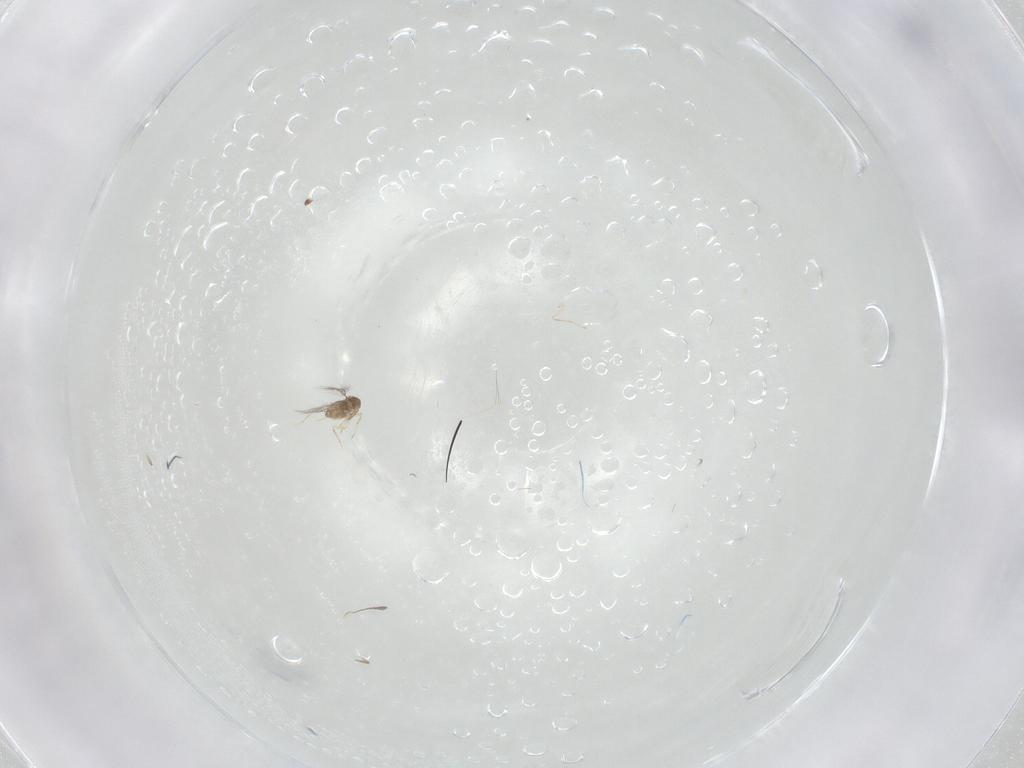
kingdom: Animalia
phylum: Arthropoda
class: Insecta
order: Hymenoptera
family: Mymaridae
